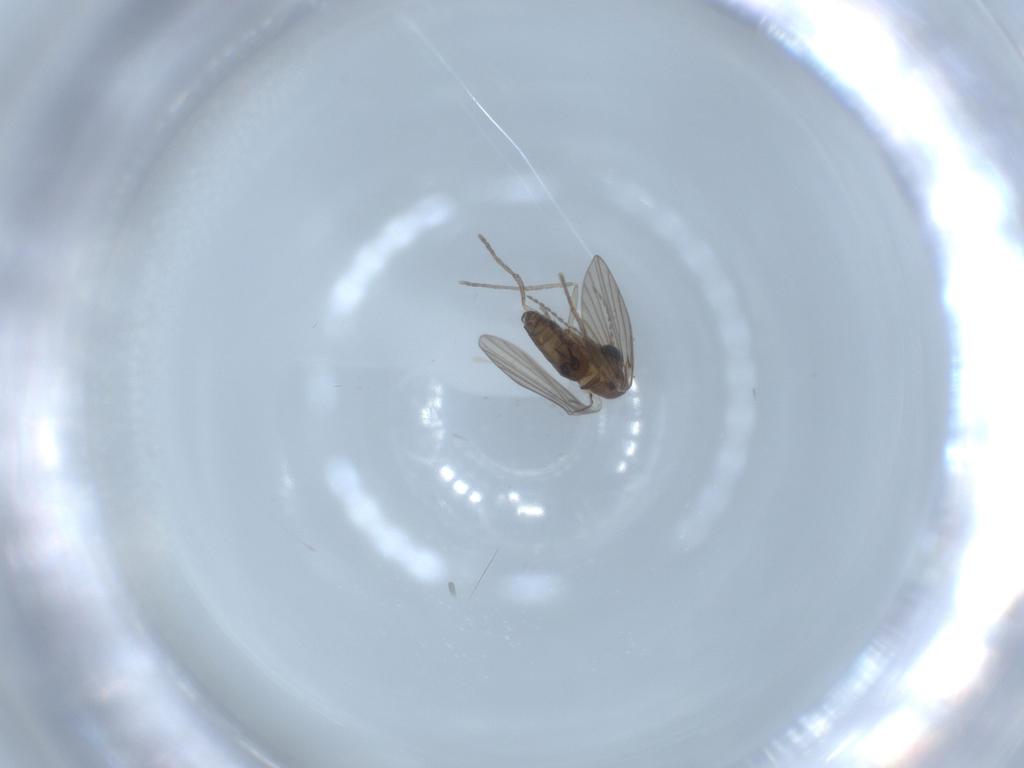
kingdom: Animalia
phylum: Arthropoda
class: Insecta
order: Diptera
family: Psychodidae
